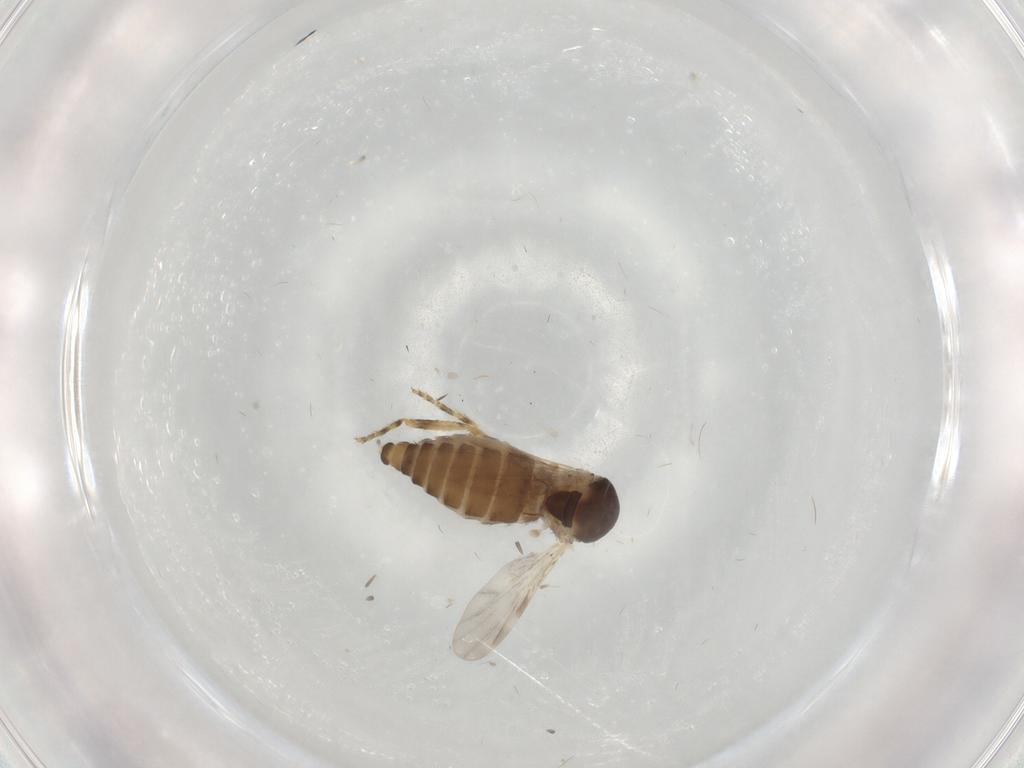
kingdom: Animalia
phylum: Arthropoda
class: Insecta
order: Diptera
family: Ceratopogonidae
